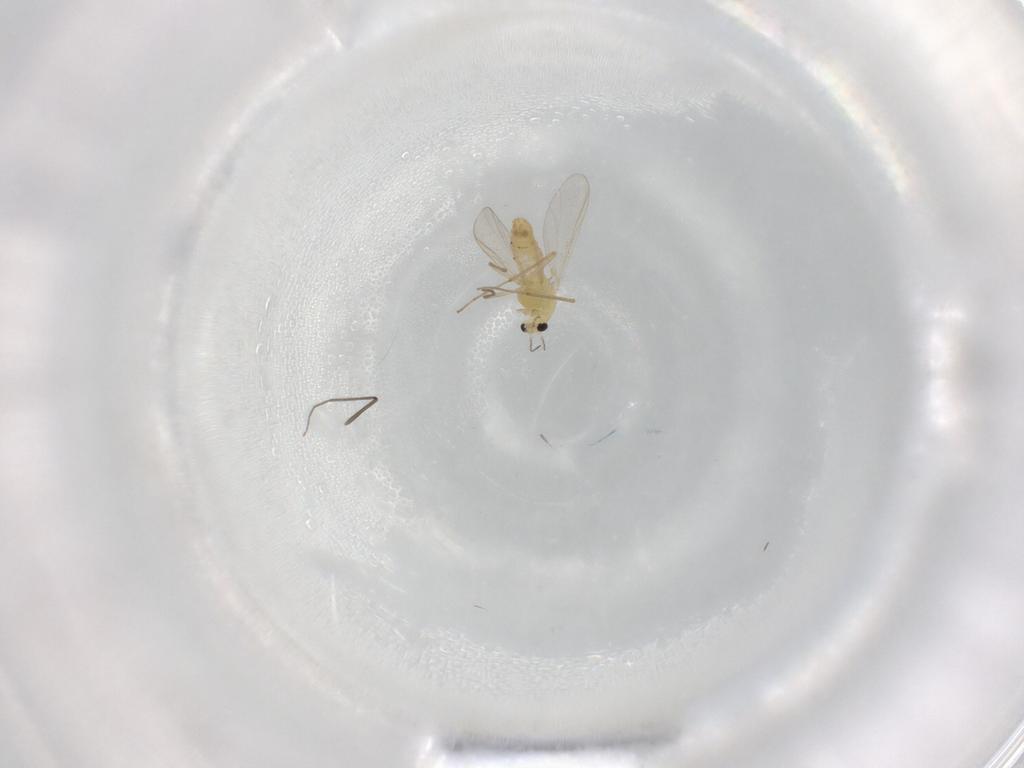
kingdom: Animalia
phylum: Arthropoda
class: Insecta
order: Diptera
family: Chironomidae
